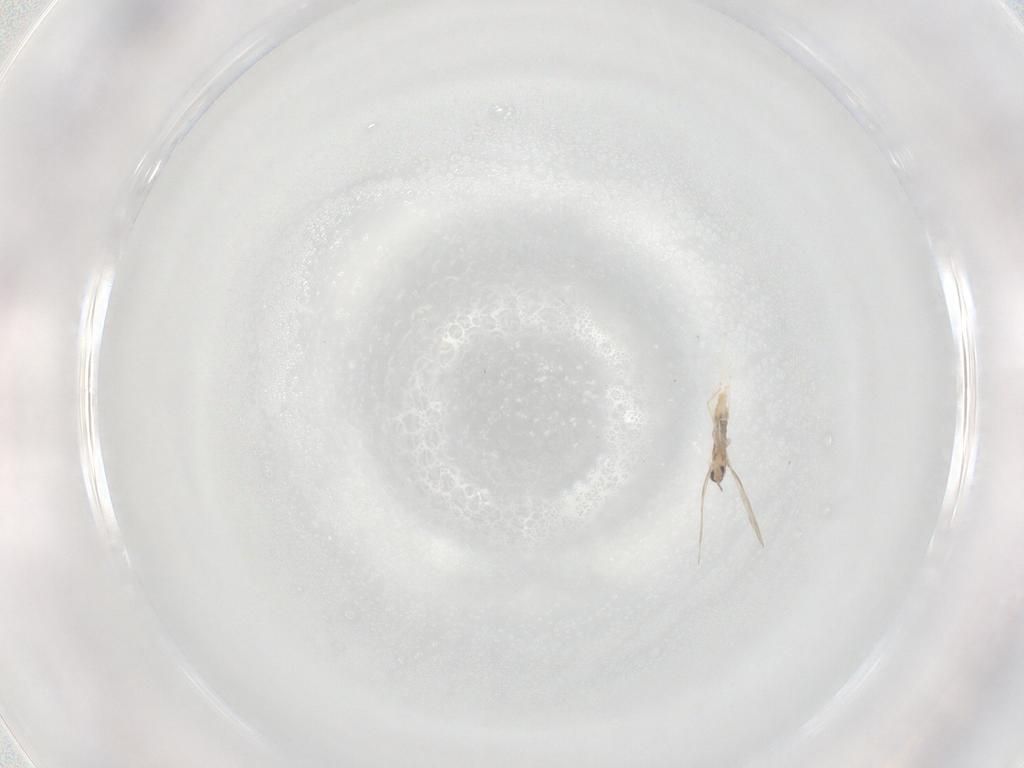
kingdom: Animalia
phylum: Arthropoda
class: Insecta
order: Diptera
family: Cecidomyiidae
